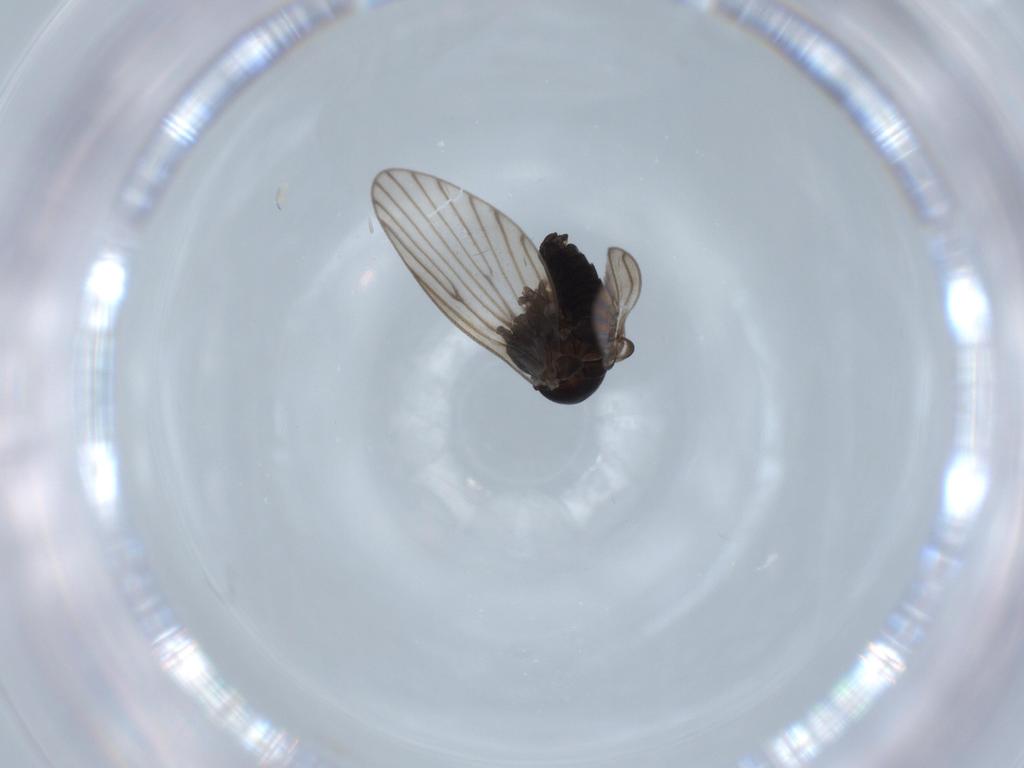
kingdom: Animalia
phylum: Arthropoda
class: Insecta
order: Diptera
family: Psychodidae
